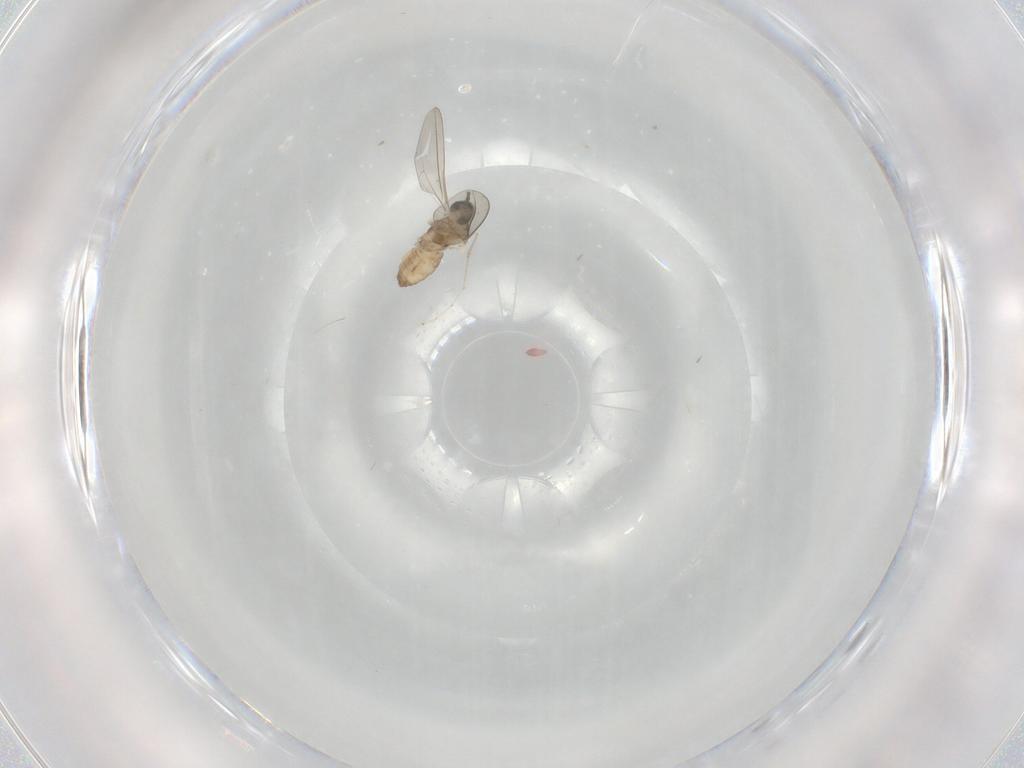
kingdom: Animalia
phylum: Arthropoda
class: Insecta
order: Diptera
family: Cecidomyiidae
